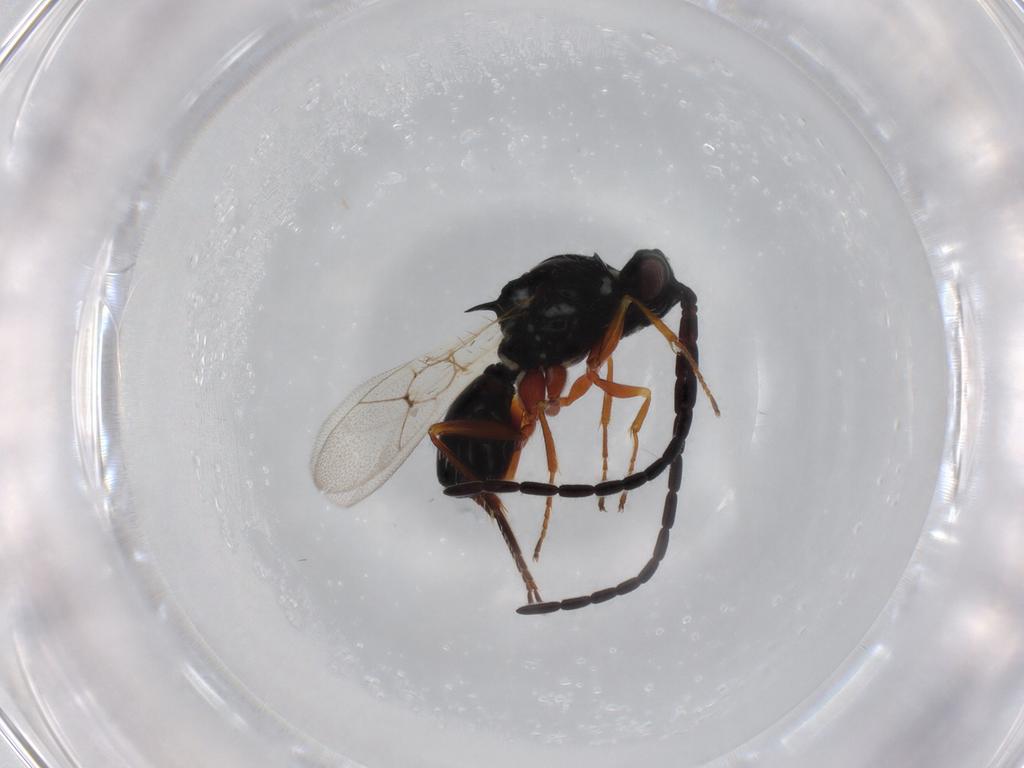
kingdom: Animalia
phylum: Arthropoda
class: Insecta
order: Hymenoptera
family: Figitidae
